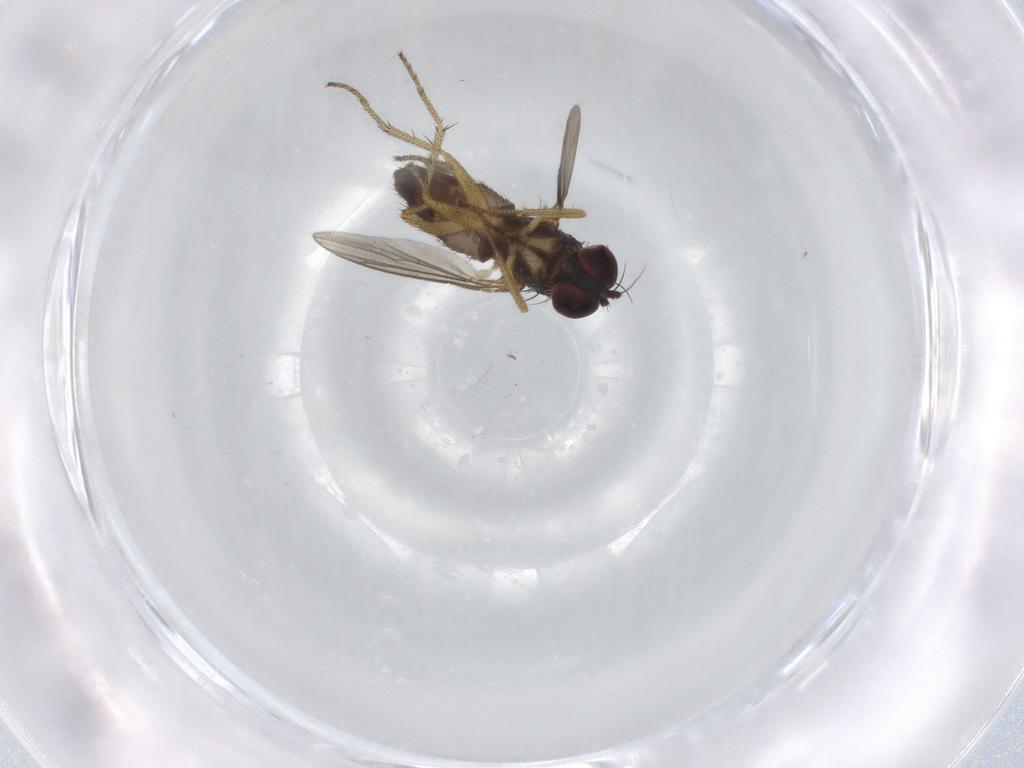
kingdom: Animalia
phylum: Arthropoda
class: Insecta
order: Diptera
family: Dolichopodidae
